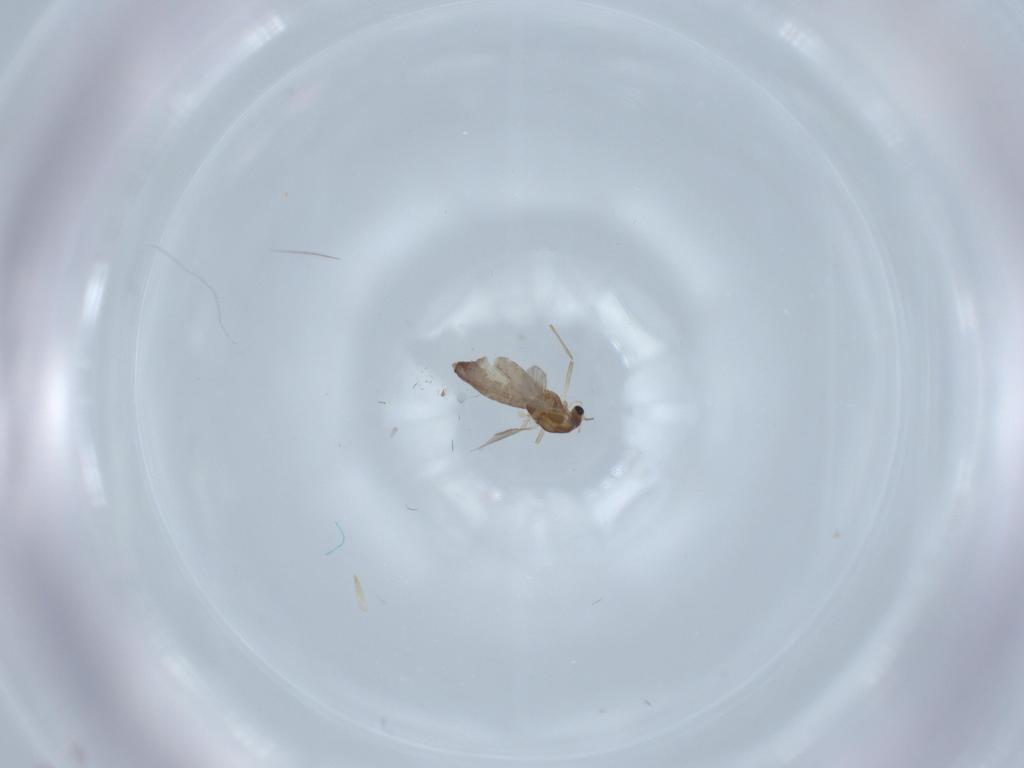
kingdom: Animalia
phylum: Arthropoda
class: Insecta
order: Diptera
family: Chironomidae
